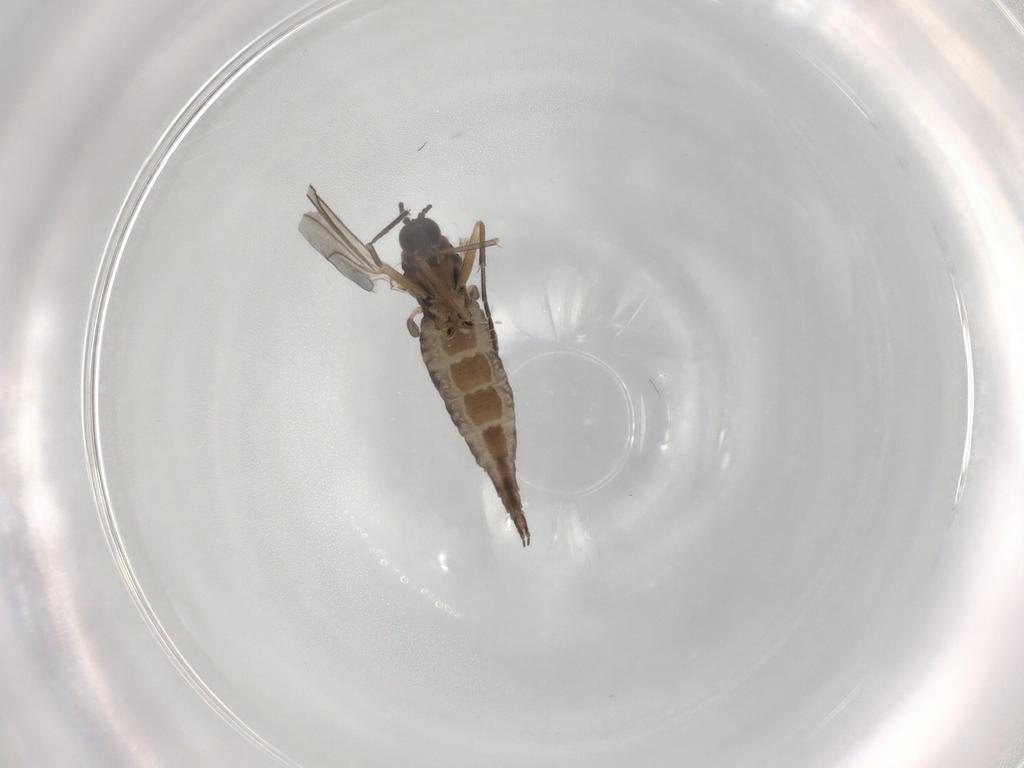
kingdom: Animalia
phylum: Arthropoda
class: Insecta
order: Diptera
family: Sciaridae
